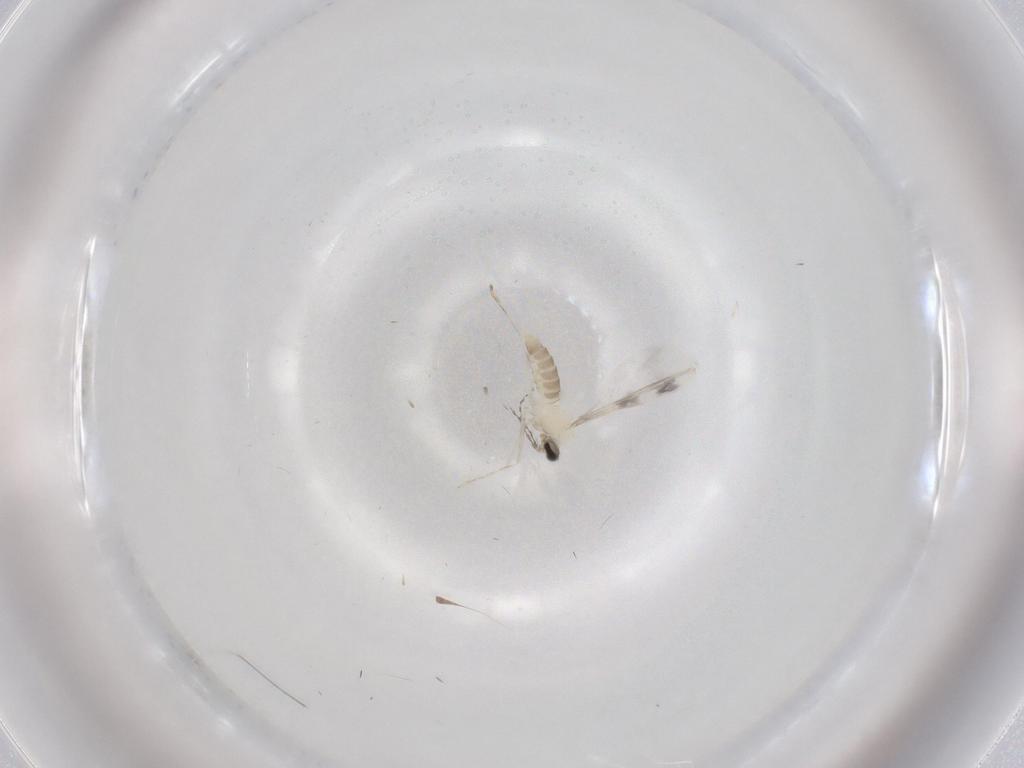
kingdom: Animalia
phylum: Arthropoda
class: Insecta
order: Diptera
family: Cecidomyiidae
